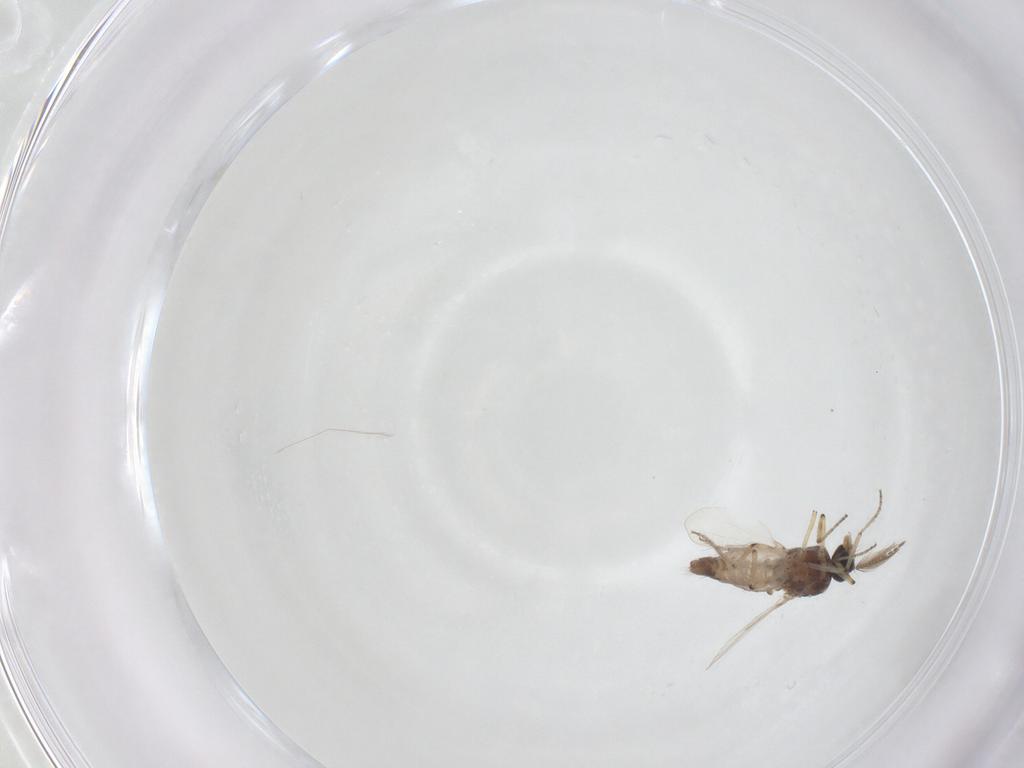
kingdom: Animalia
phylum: Arthropoda
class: Insecta
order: Diptera
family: Ceratopogonidae
